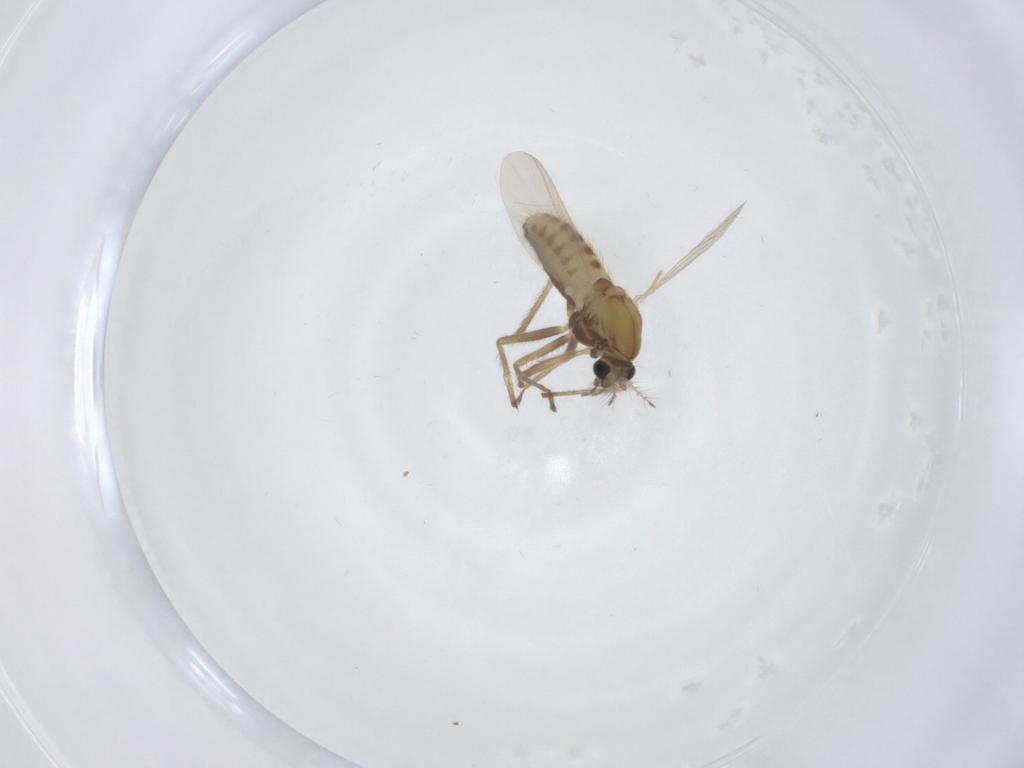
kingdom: Animalia
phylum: Arthropoda
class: Insecta
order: Diptera
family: Chironomidae
